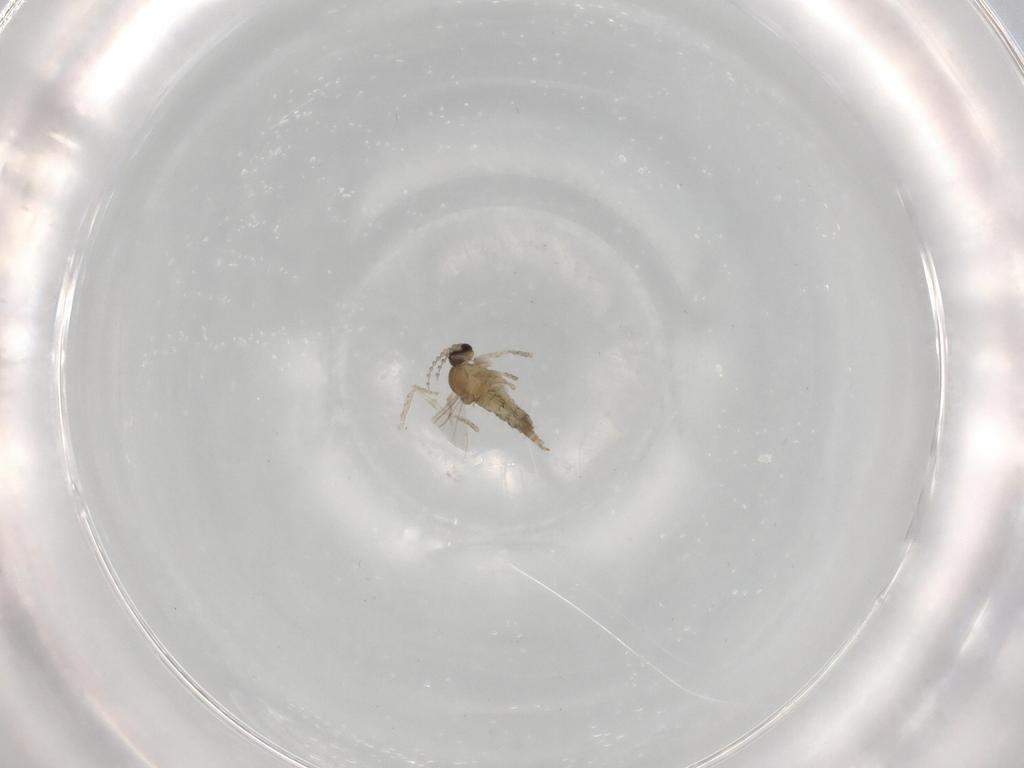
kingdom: Animalia
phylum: Arthropoda
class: Insecta
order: Diptera
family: Cecidomyiidae
